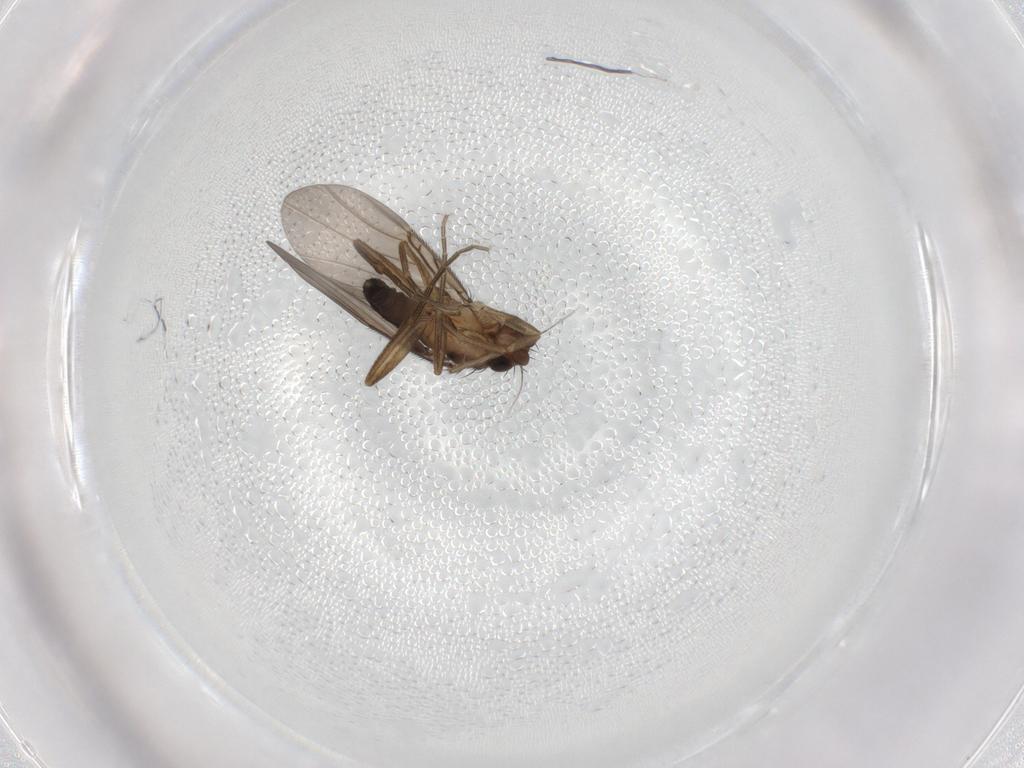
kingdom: Animalia
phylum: Arthropoda
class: Insecta
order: Diptera
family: Phoridae
